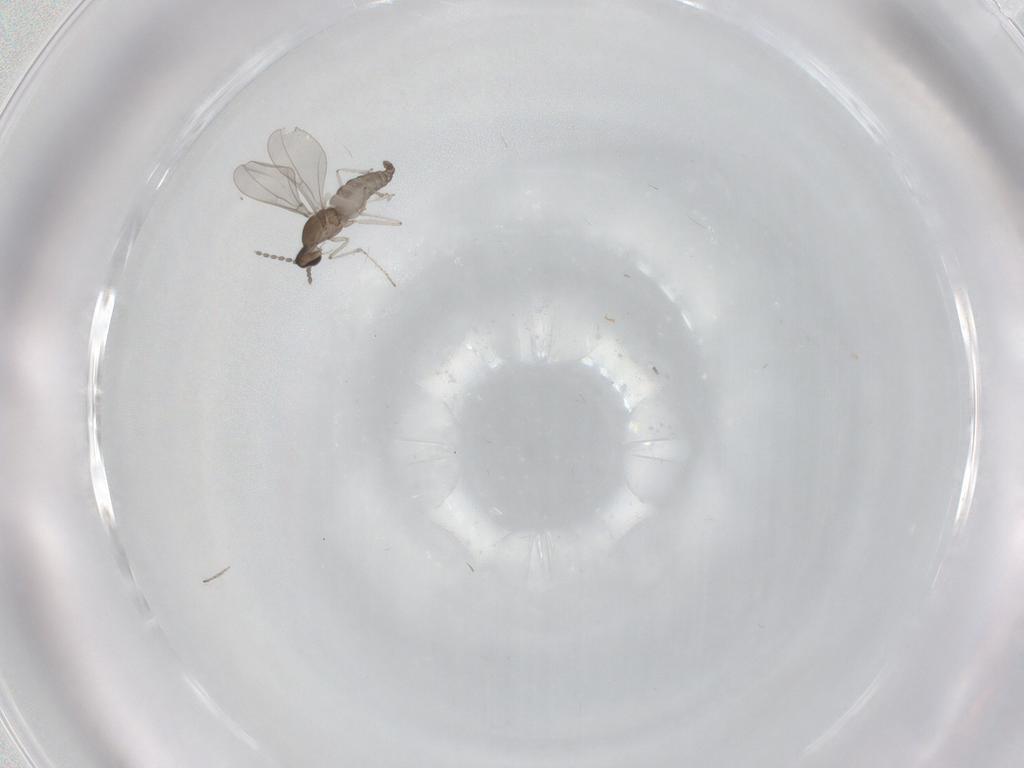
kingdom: Animalia
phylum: Arthropoda
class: Insecta
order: Diptera
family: Cecidomyiidae
